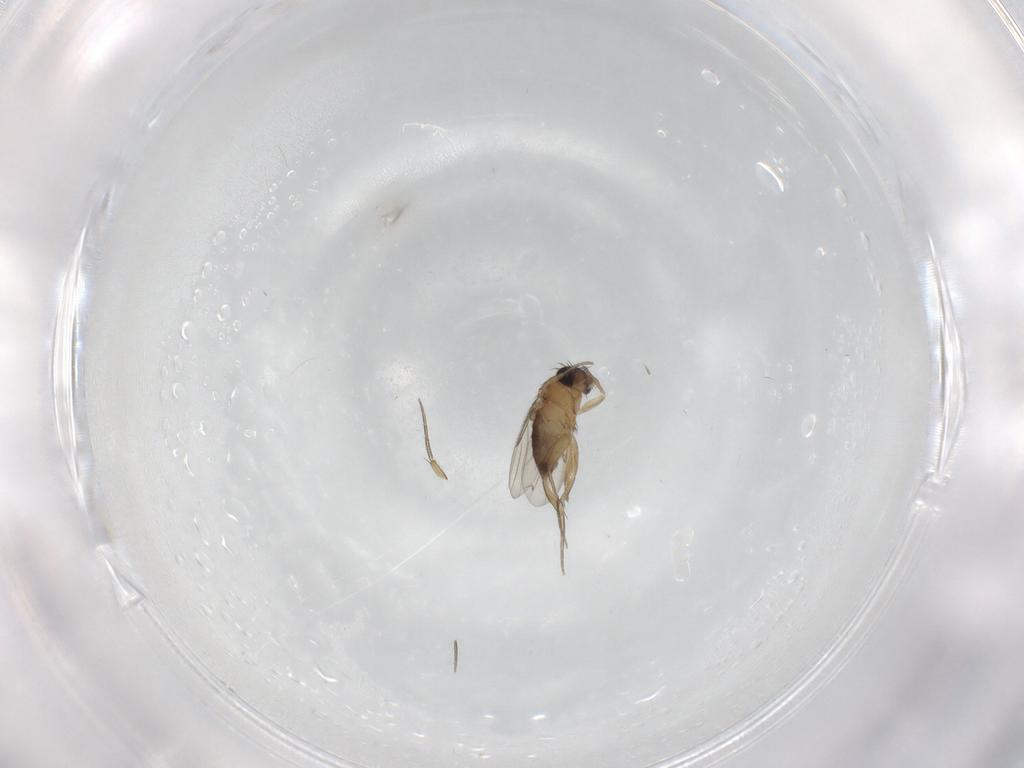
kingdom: Animalia
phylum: Arthropoda
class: Insecta
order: Diptera
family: Phoridae
